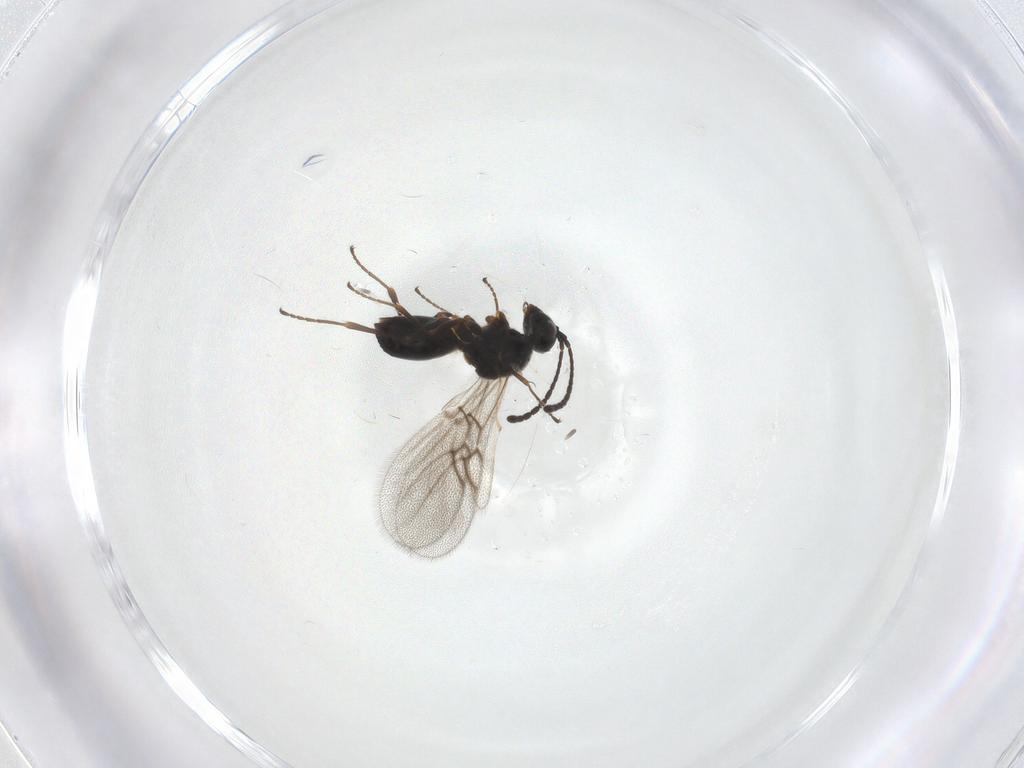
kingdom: Animalia
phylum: Arthropoda
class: Insecta
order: Hymenoptera
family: Figitidae
